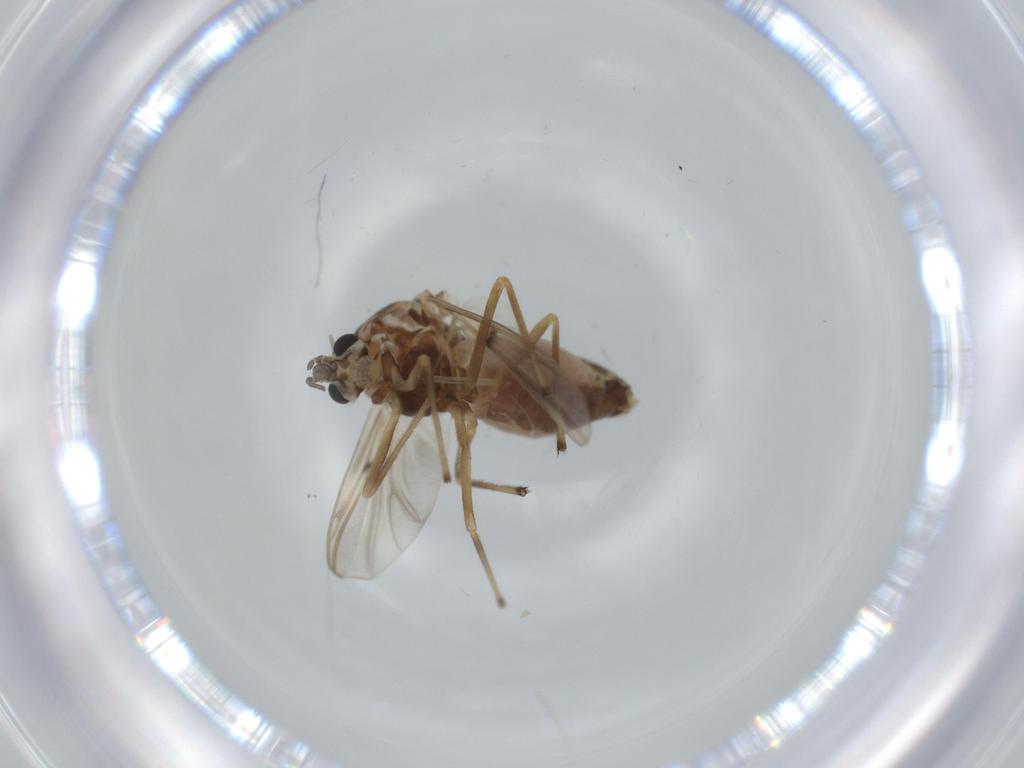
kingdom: Animalia
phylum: Arthropoda
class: Insecta
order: Diptera
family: Chironomidae
